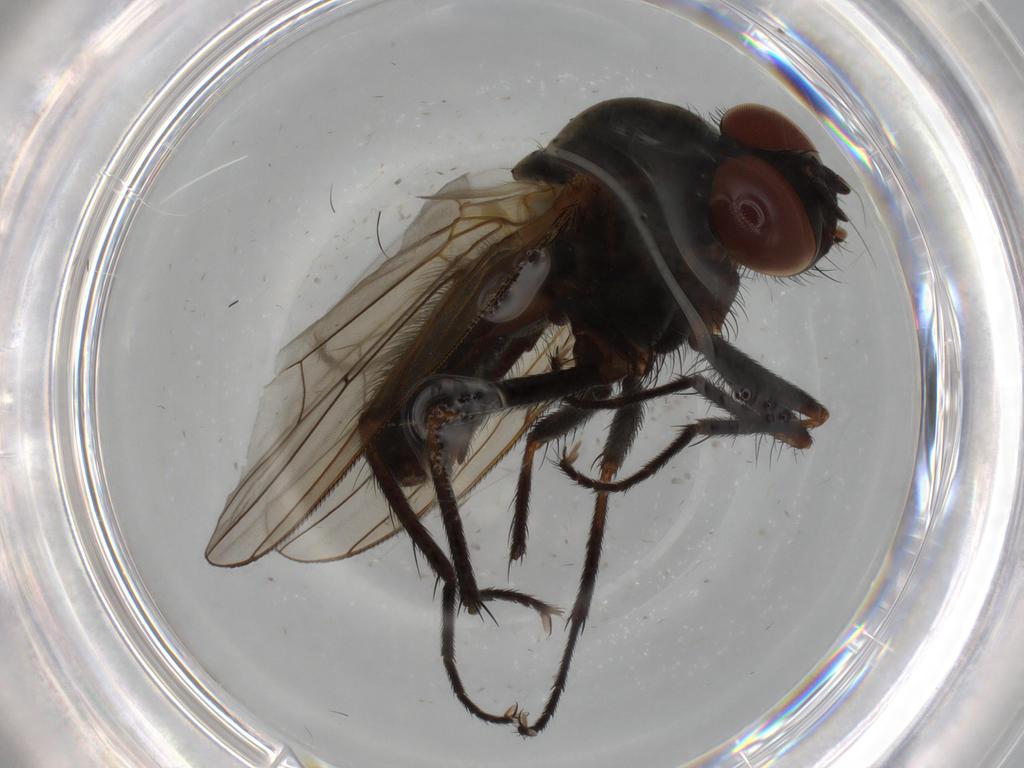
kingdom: Animalia
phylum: Arthropoda
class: Insecta
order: Diptera
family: Anthomyiidae
